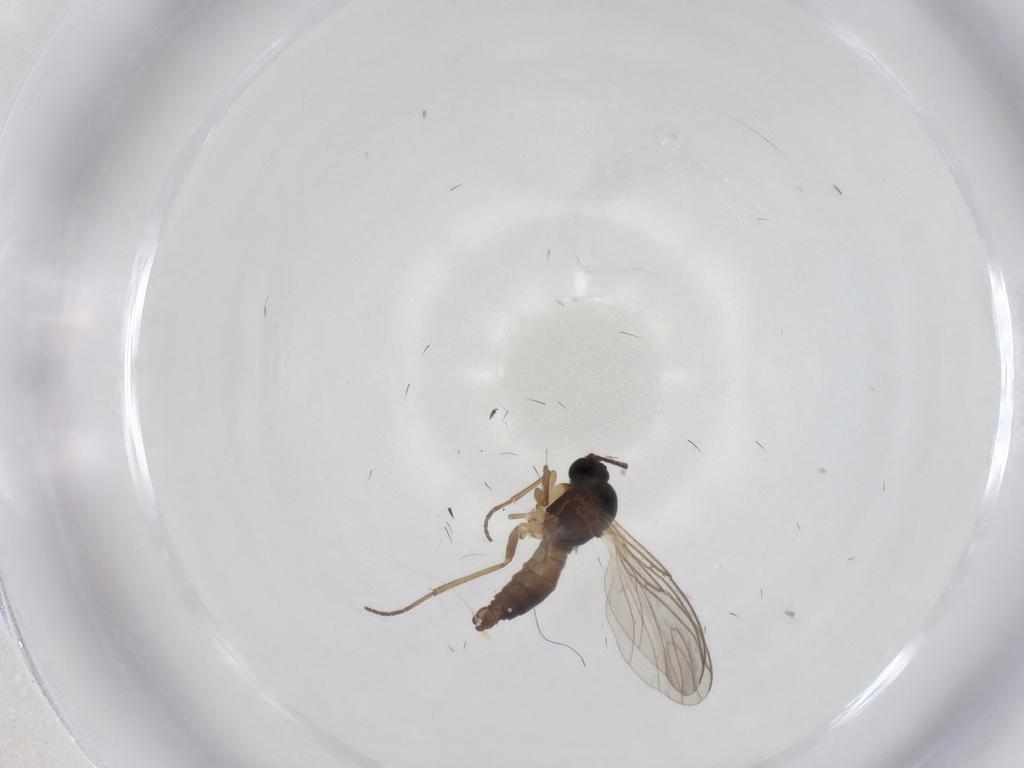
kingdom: Animalia
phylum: Arthropoda
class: Insecta
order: Diptera
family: Sciaridae
